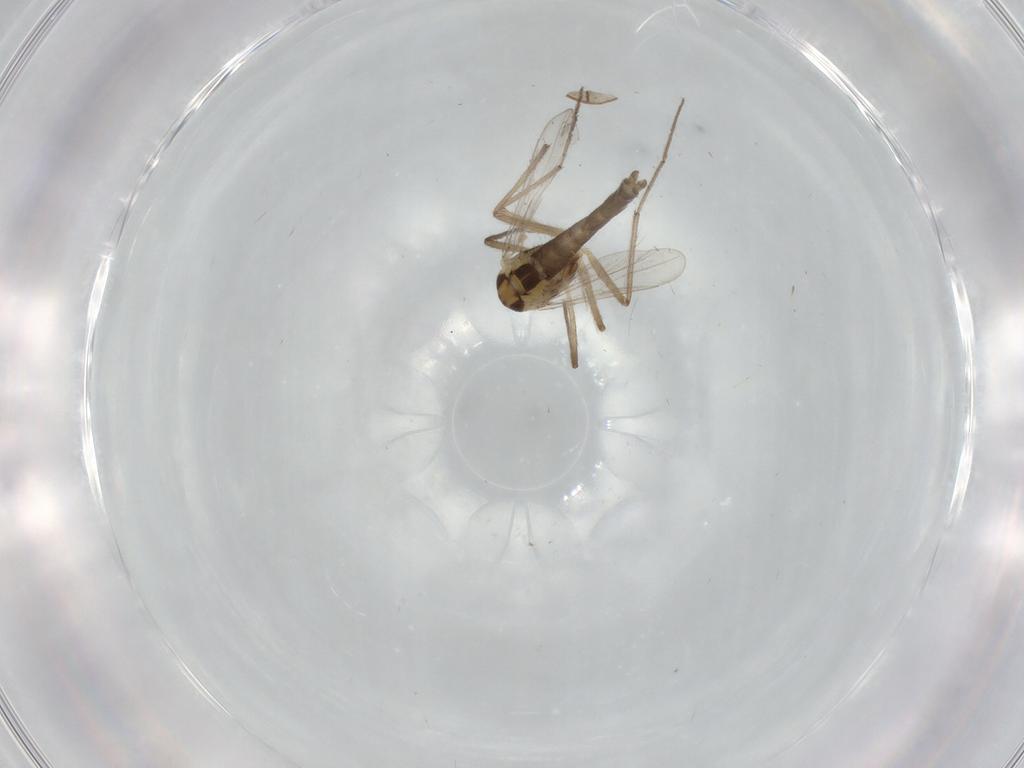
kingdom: Animalia
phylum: Arthropoda
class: Insecta
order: Diptera
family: Chironomidae
